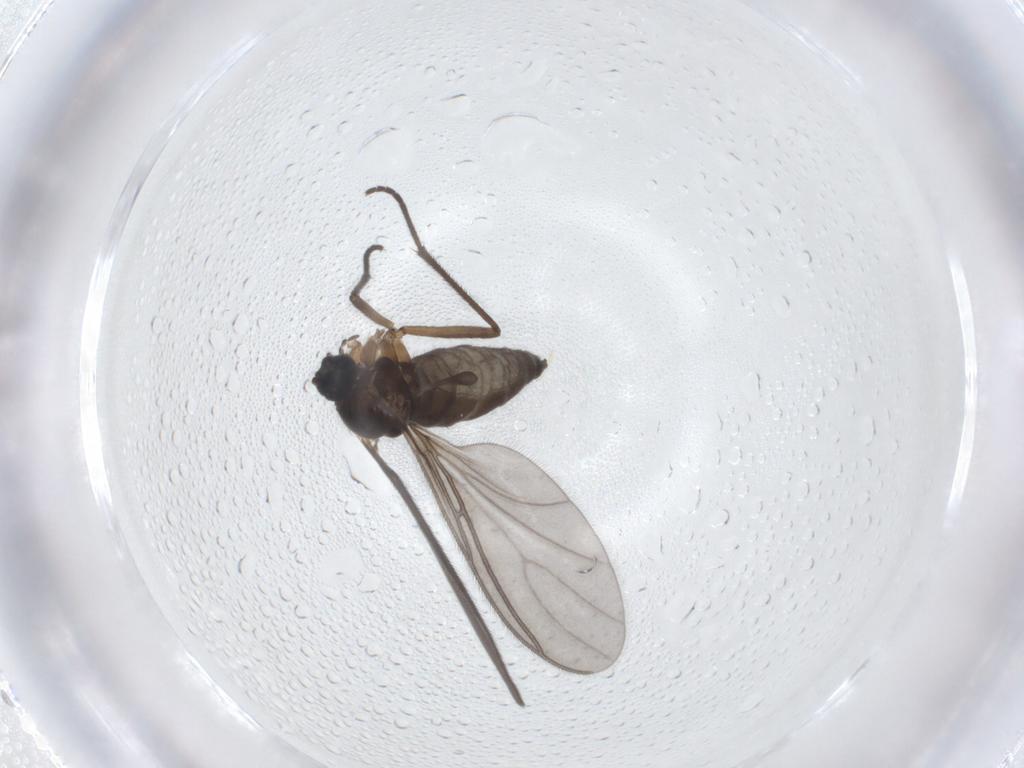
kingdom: Animalia
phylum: Arthropoda
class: Insecta
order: Diptera
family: Sciaridae
